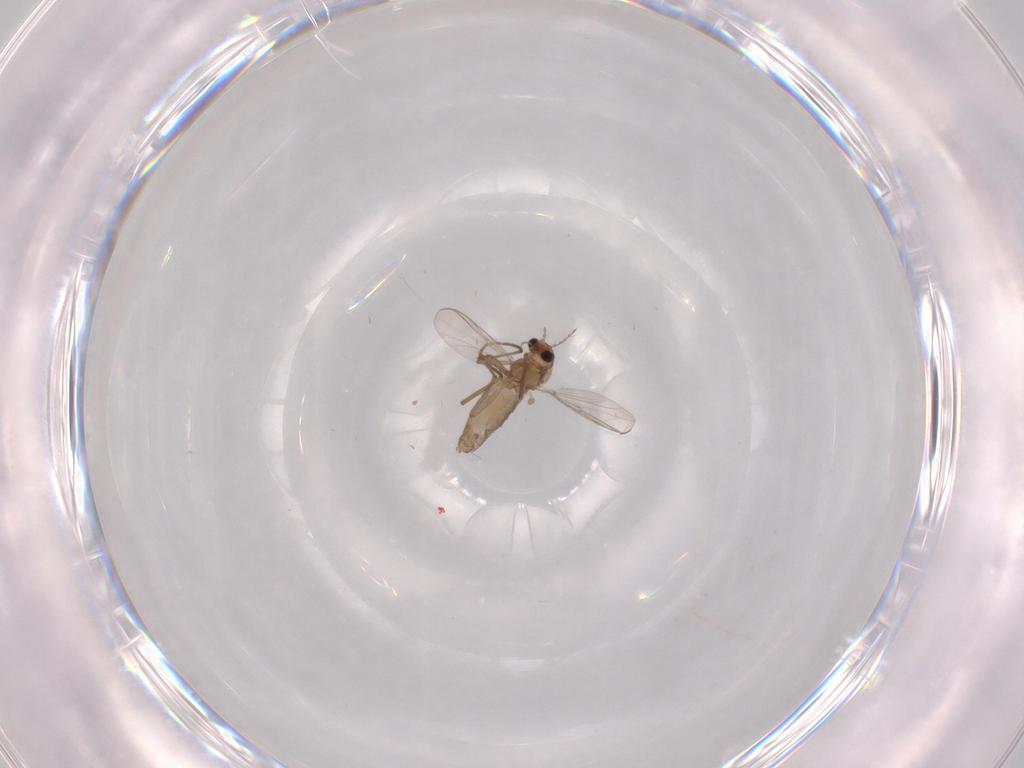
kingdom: Animalia
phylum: Arthropoda
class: Insecta
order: Diptera
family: Chironomidae
